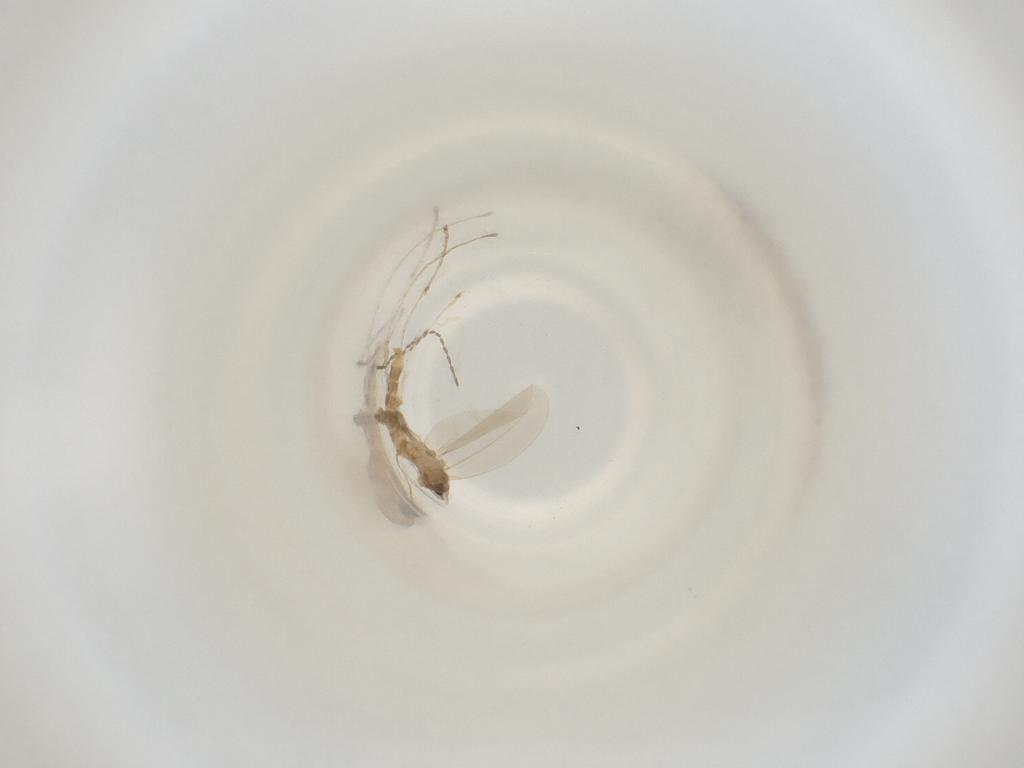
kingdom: Animalia
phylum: Arthropoda
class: Insecta
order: Diptera
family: Cecidomyiidae
